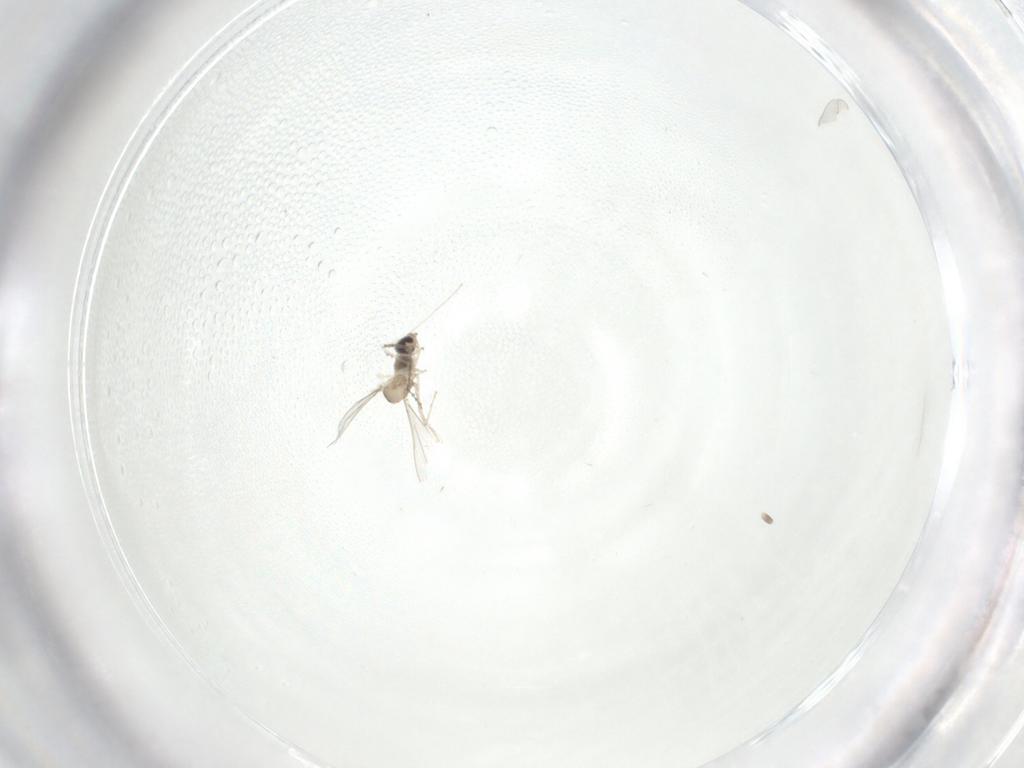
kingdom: Animalia
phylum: Arthropoda
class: Insecta
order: Diptera
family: Cecidomyiidae
